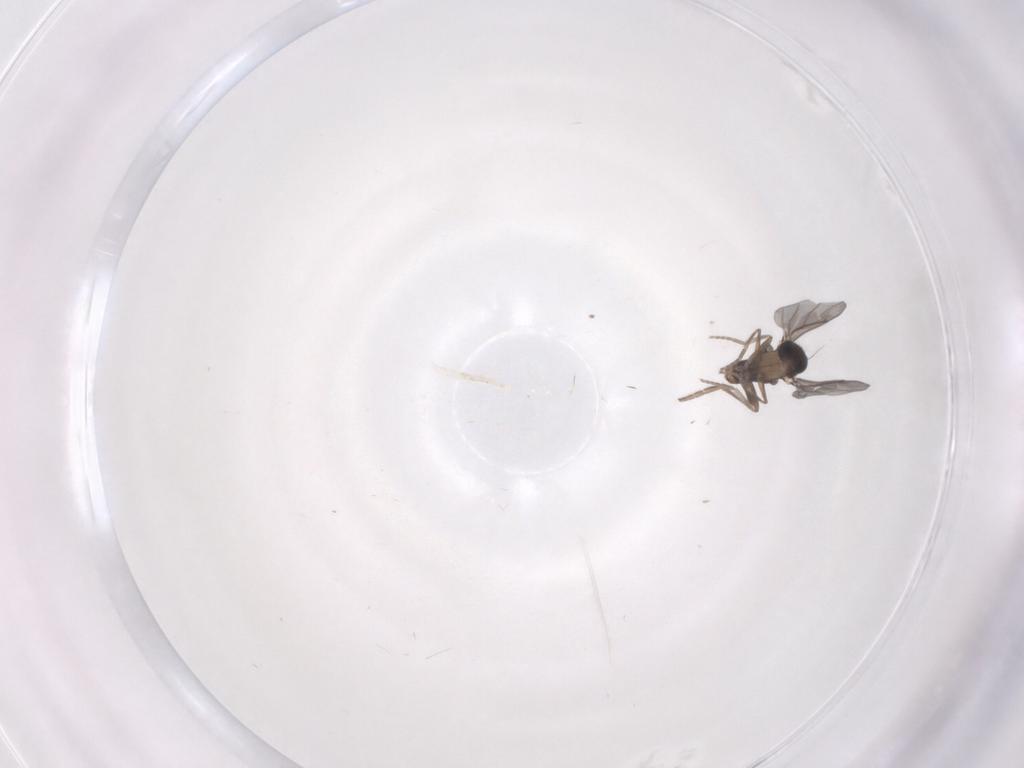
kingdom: Animalia
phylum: Arthropoda
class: Insecta
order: Diptera
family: Phoridae
